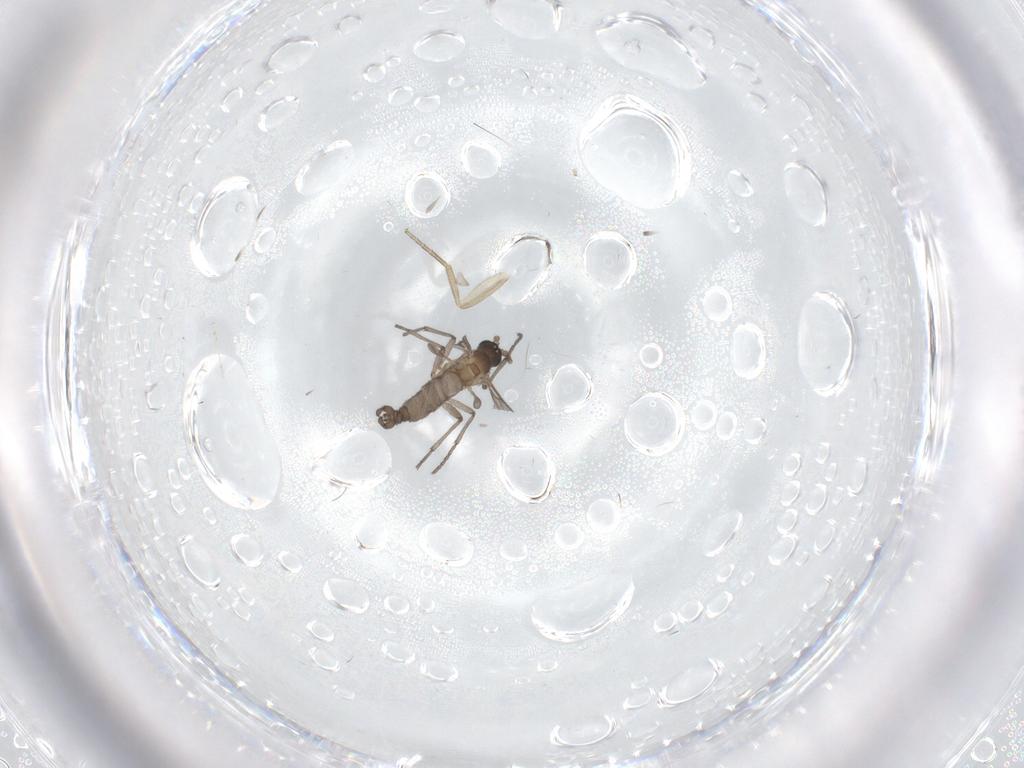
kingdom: Animalia
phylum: Arthropoda
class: Insecta
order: Diptera
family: Sciaridae
